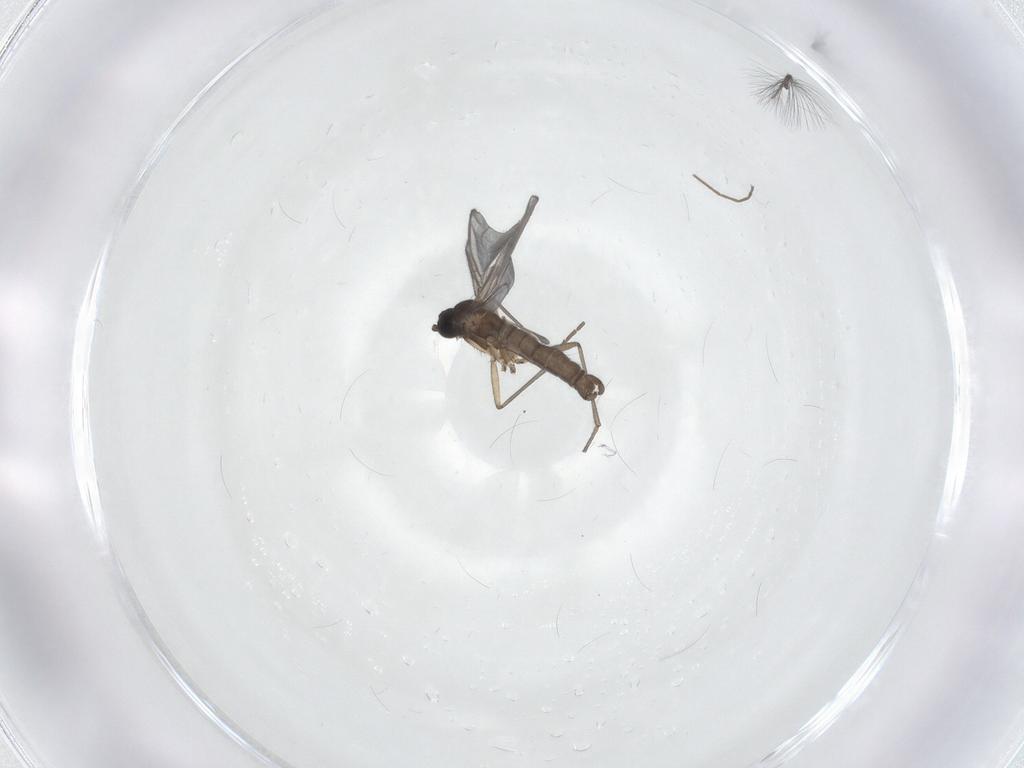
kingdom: Animalia
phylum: Arthropoda
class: Insecta
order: Diptera
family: Sciaridae
